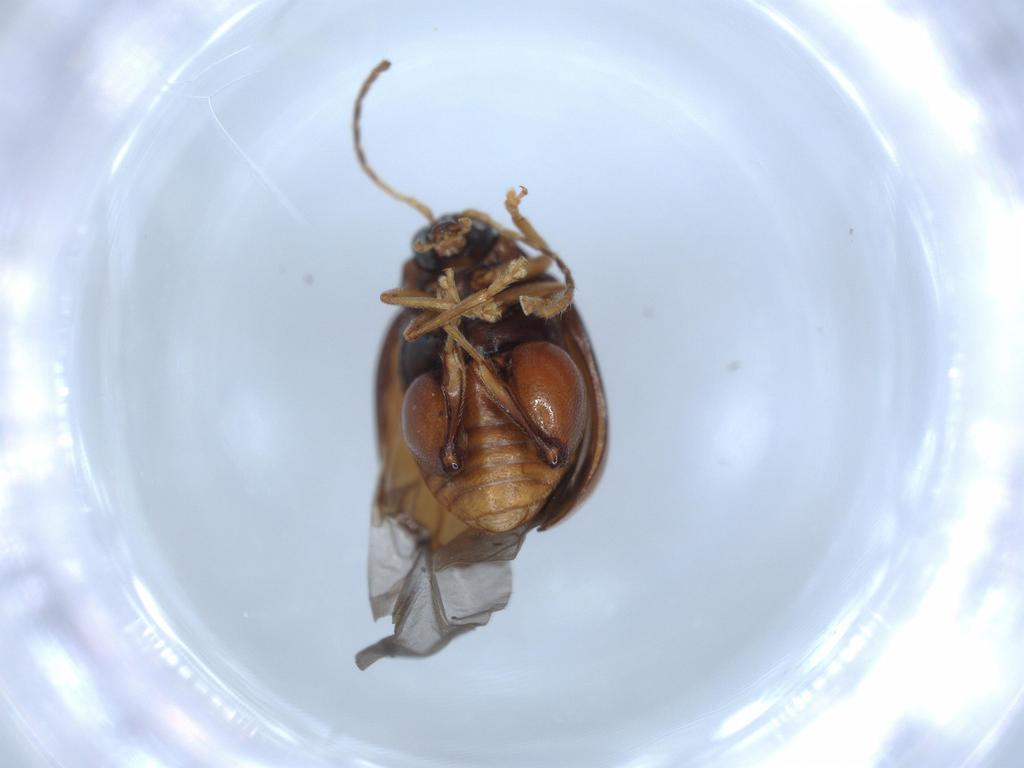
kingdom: Animalia
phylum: Arthropoda
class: Insecta
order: Coleoptera
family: Chrysomelidae
